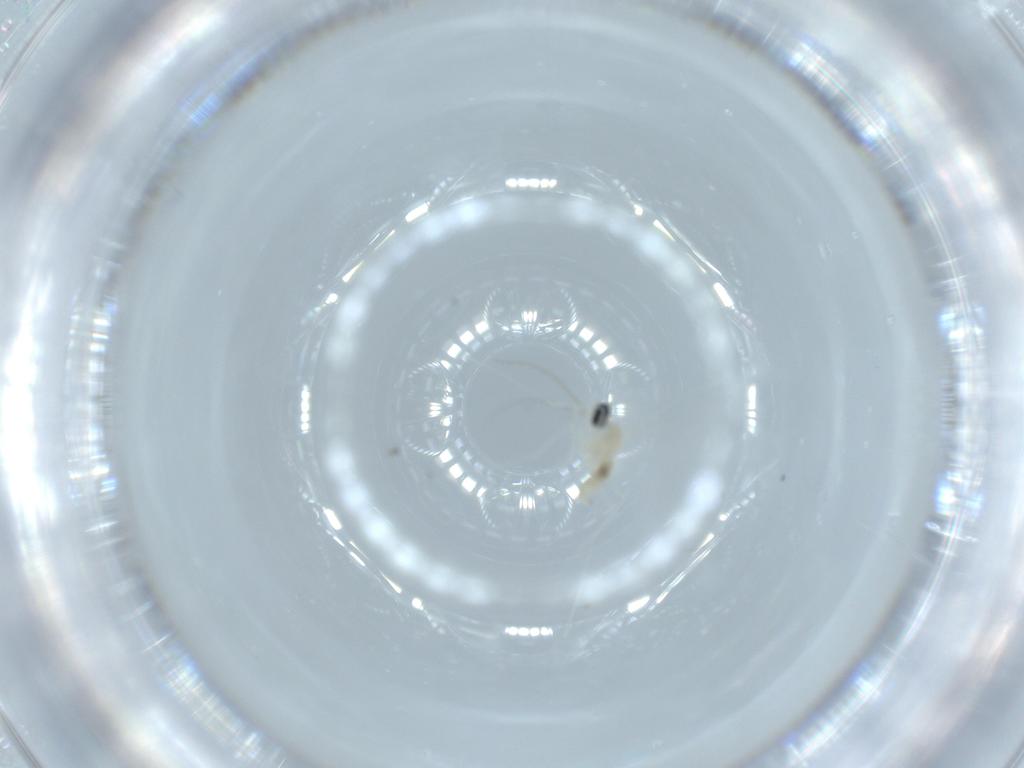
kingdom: Animalia
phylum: Arthropoda
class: Insecta
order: Diptera
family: Cecidomyiidae
